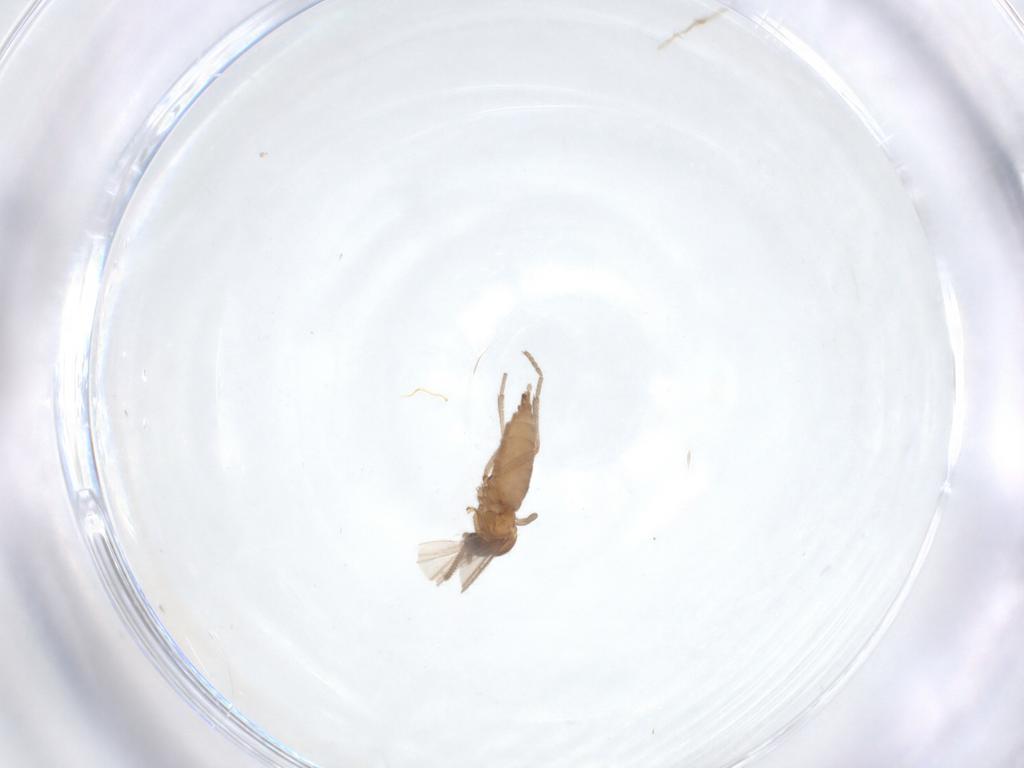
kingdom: Animalia
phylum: Arthropoda
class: Insecta
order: Diptera
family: Sciaridae
